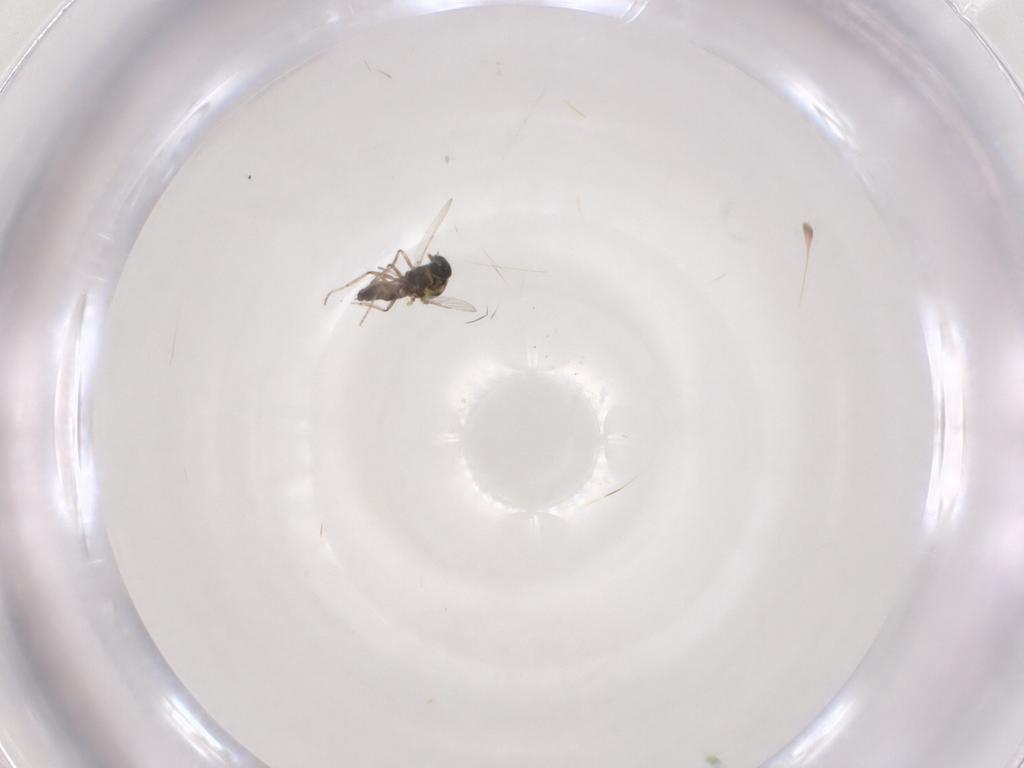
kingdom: Animalia
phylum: Arthropoda
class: Insecta
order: Diptera
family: Ceratopogonidae
